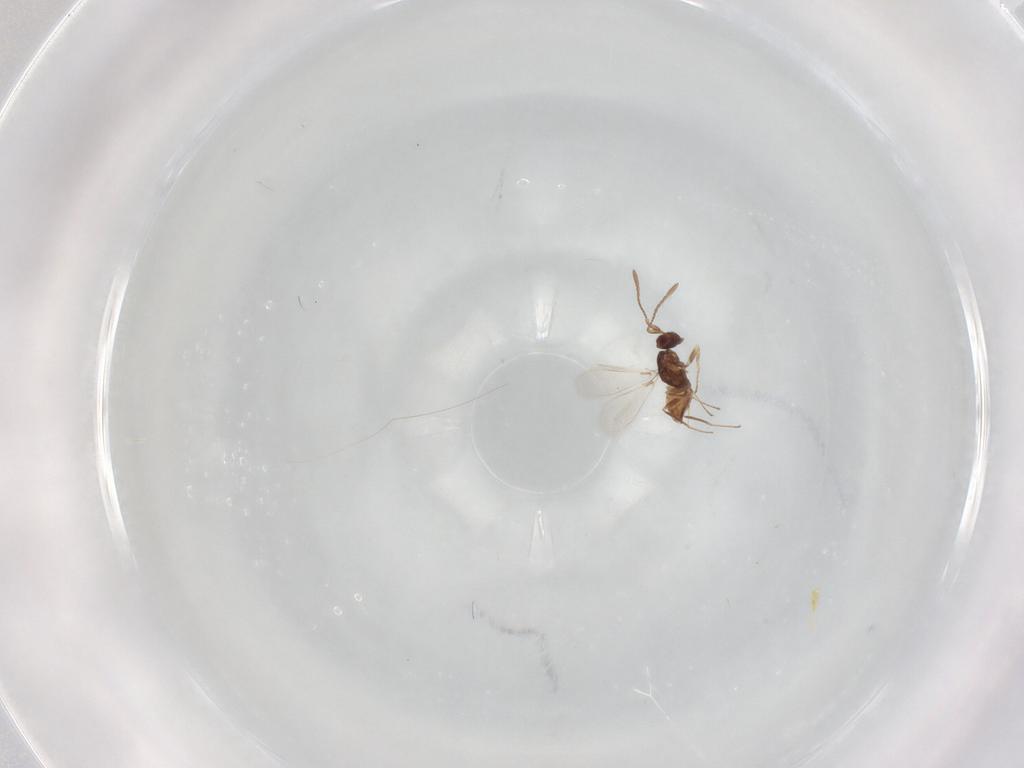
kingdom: Animalia
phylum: Arthropoda
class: Insecta
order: Hymenoptera
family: Mymaridae
